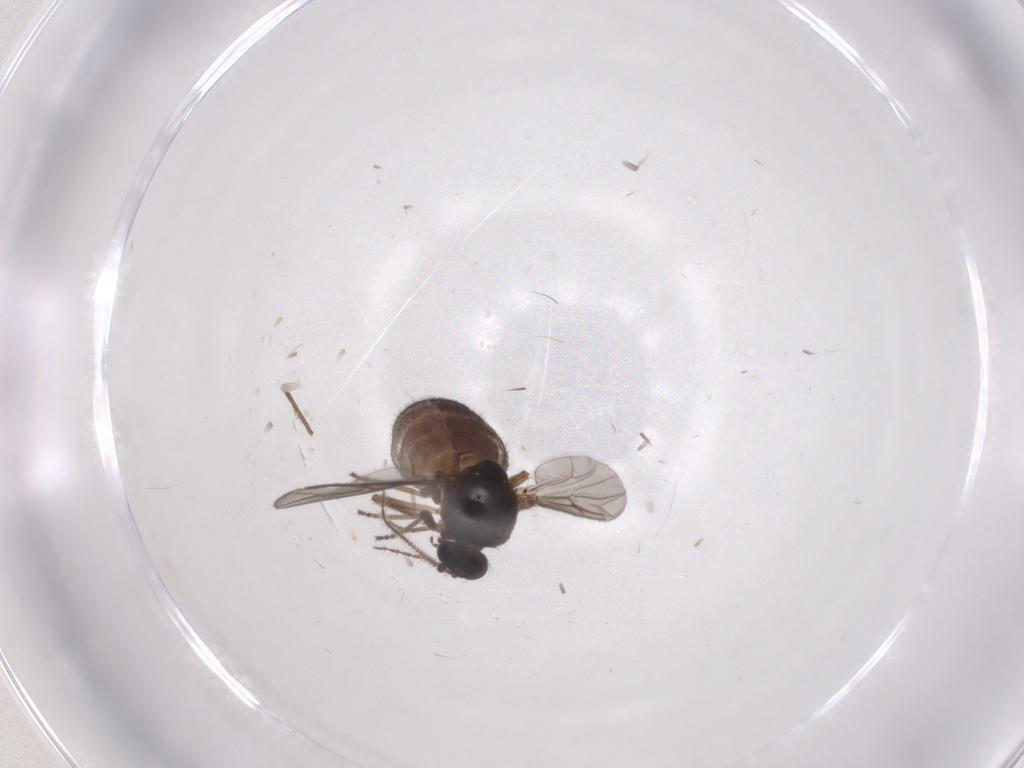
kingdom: Animalia
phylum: Arthropoda
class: Insecta
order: Diptera
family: Ceratopogonidae
